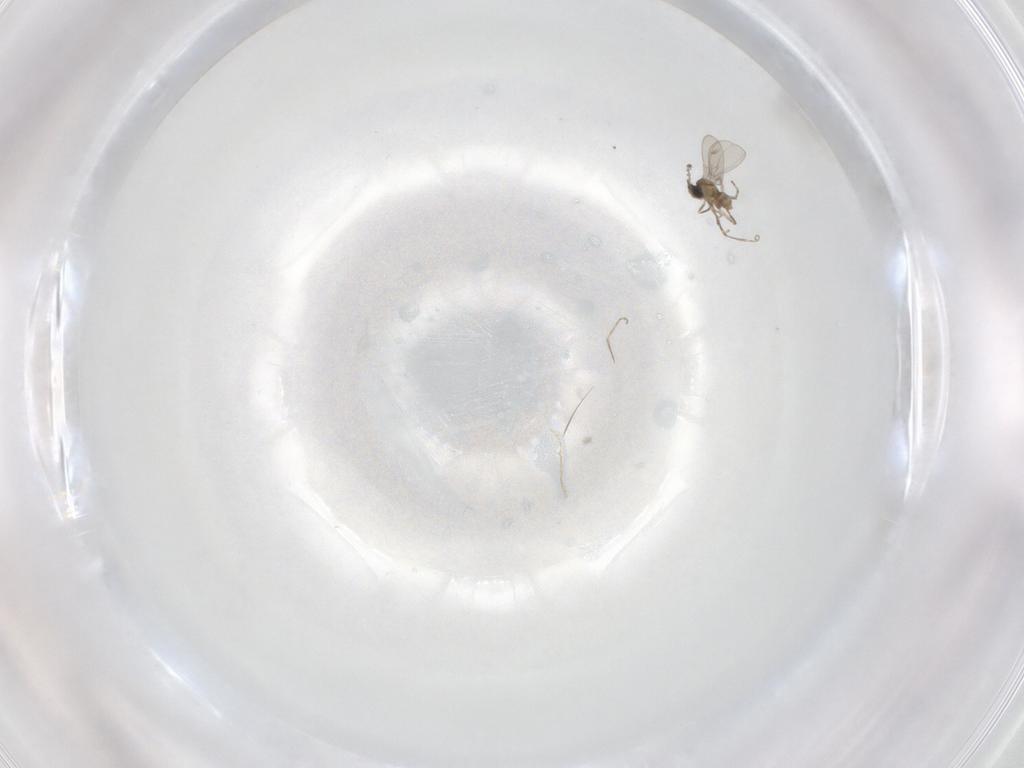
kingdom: Animalia
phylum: Arthropoda
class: Insecta
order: Diptera
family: Cecidomyiidae
